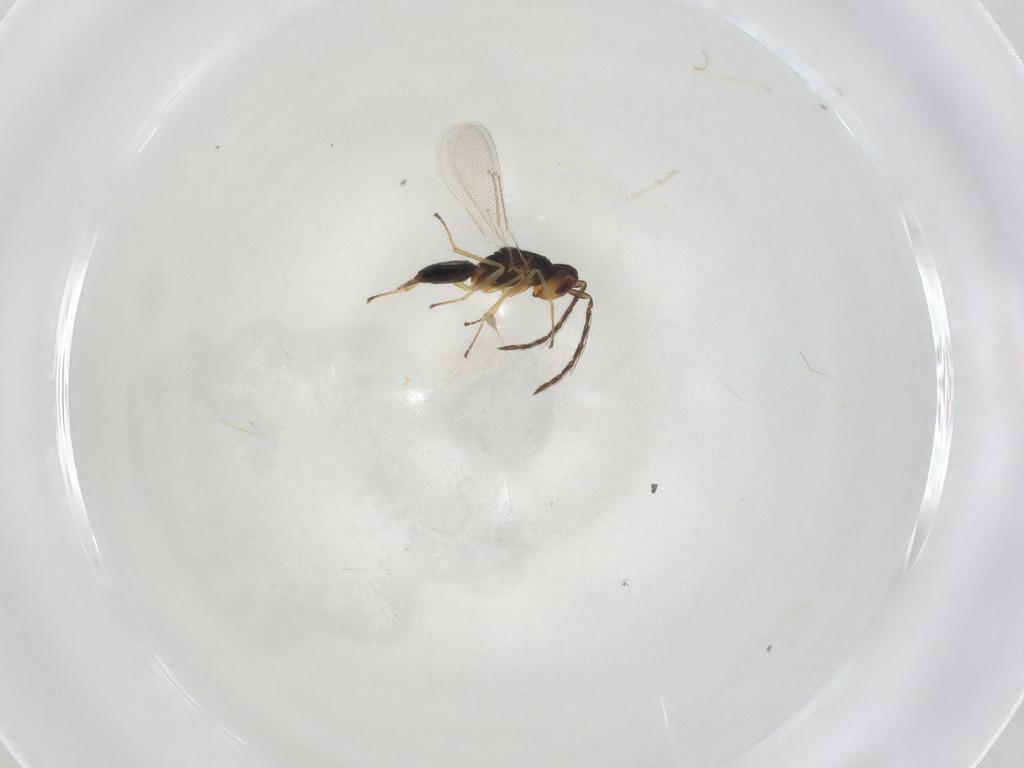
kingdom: Animalia
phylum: Arthropoda
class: Insecta
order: Hymenoptera
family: Eulophidae
